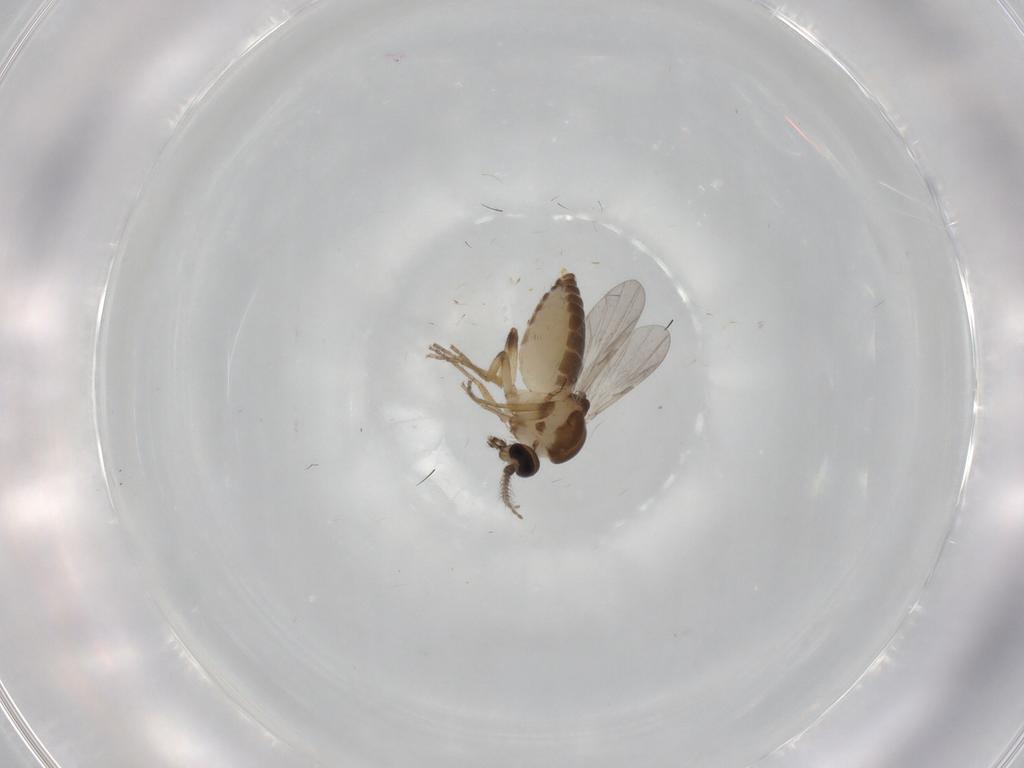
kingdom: Animalia
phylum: Arthropoda
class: Insecta
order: Diptera
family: Ceratopogonidae
